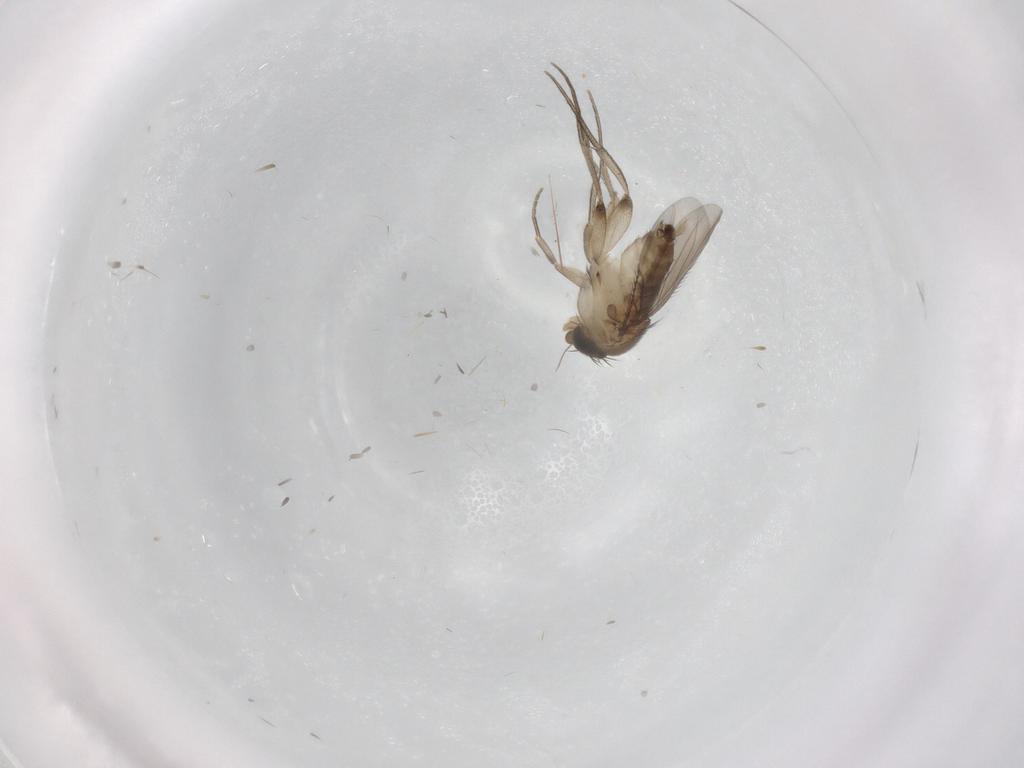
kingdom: Animalia
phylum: Arthropoda
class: Insecta
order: Diptera
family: Phoridae
